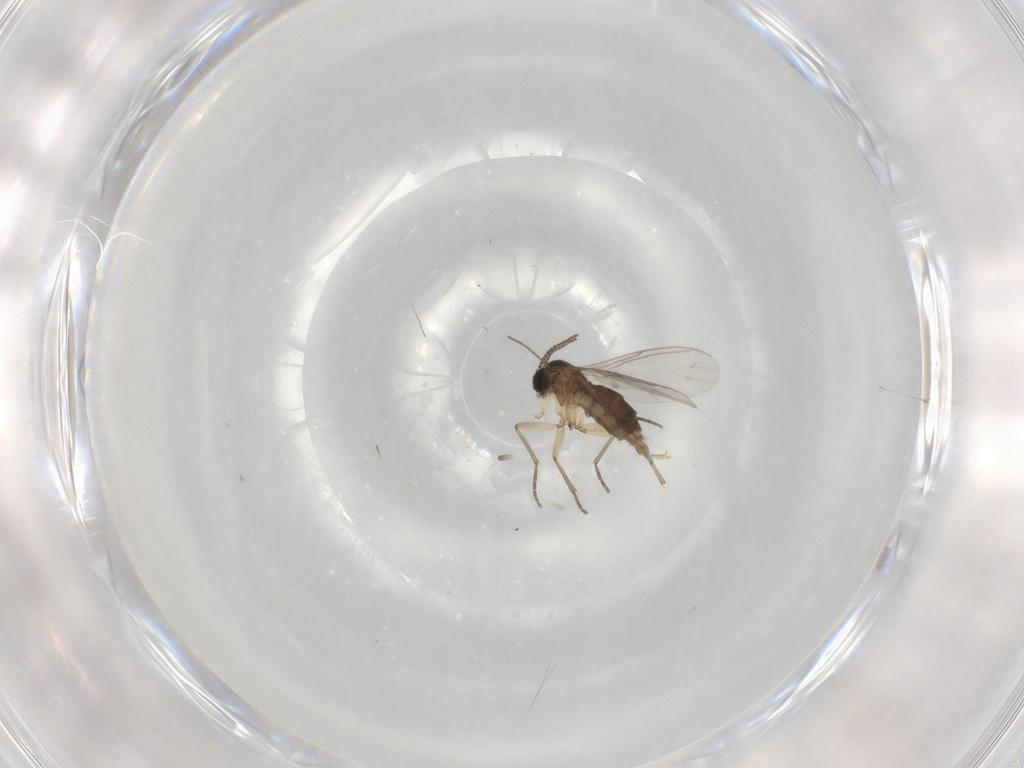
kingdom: Animalia
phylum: Arthropoda
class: Insecta
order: Diptera
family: Sciaridae
